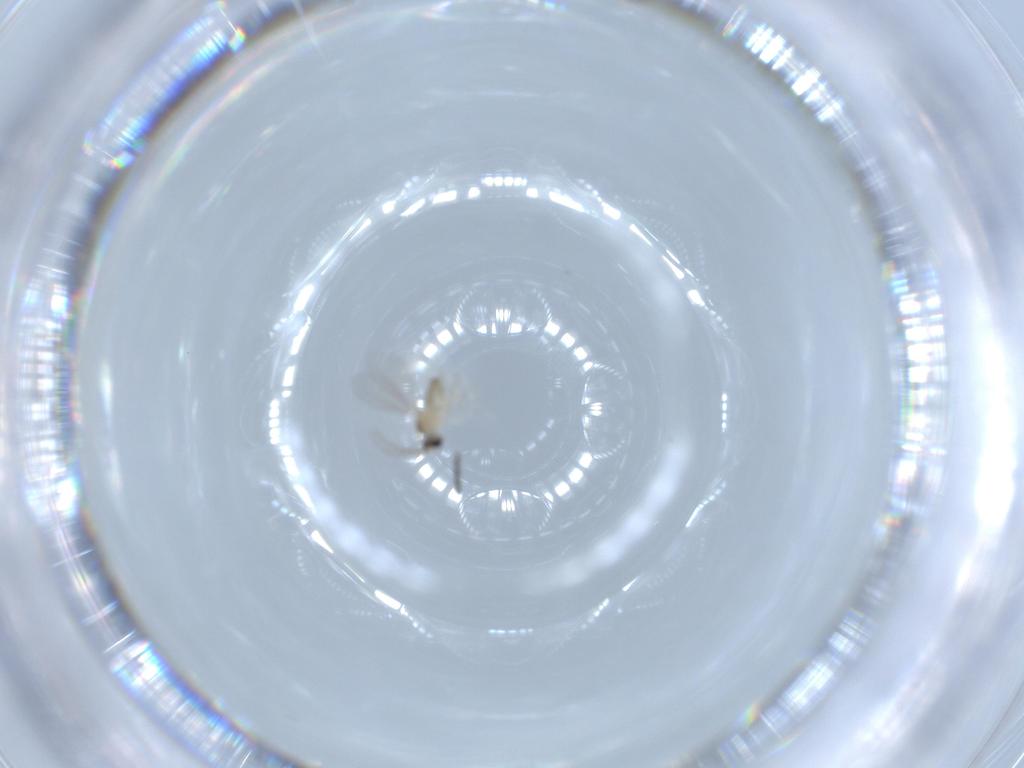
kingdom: Animalia
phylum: Arthropoda
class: Insecta
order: Diptera
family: Cecidomyiidae
